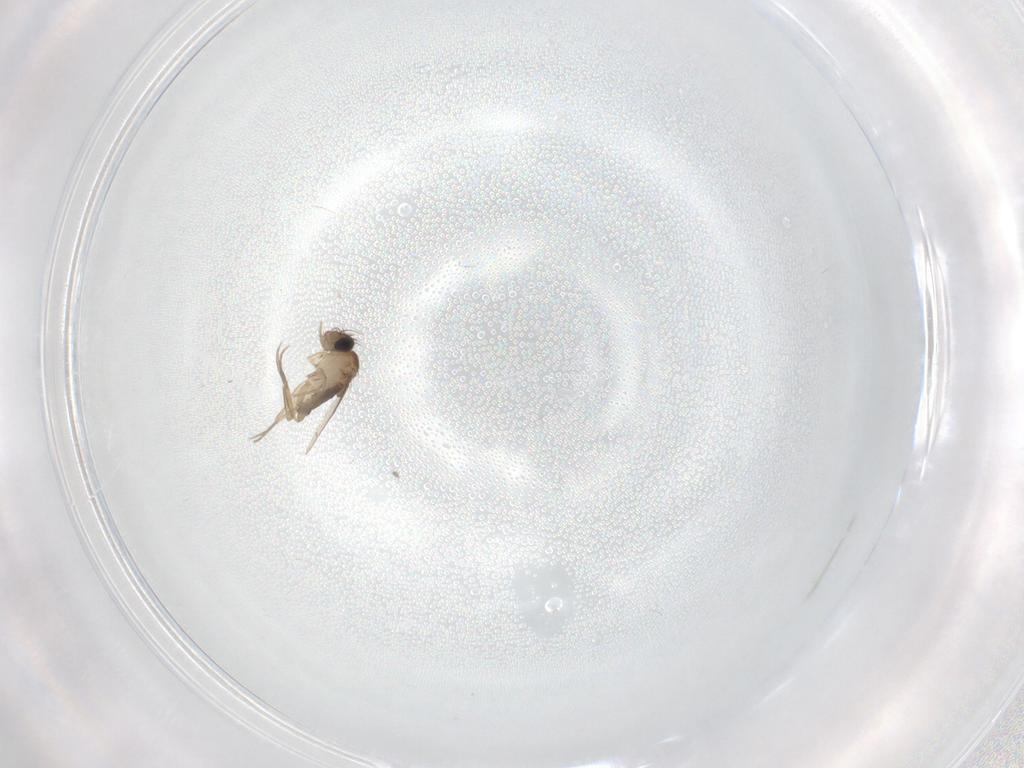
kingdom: Animalia
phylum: Arthropoda
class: Insecta
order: Diptera
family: Phoridae
